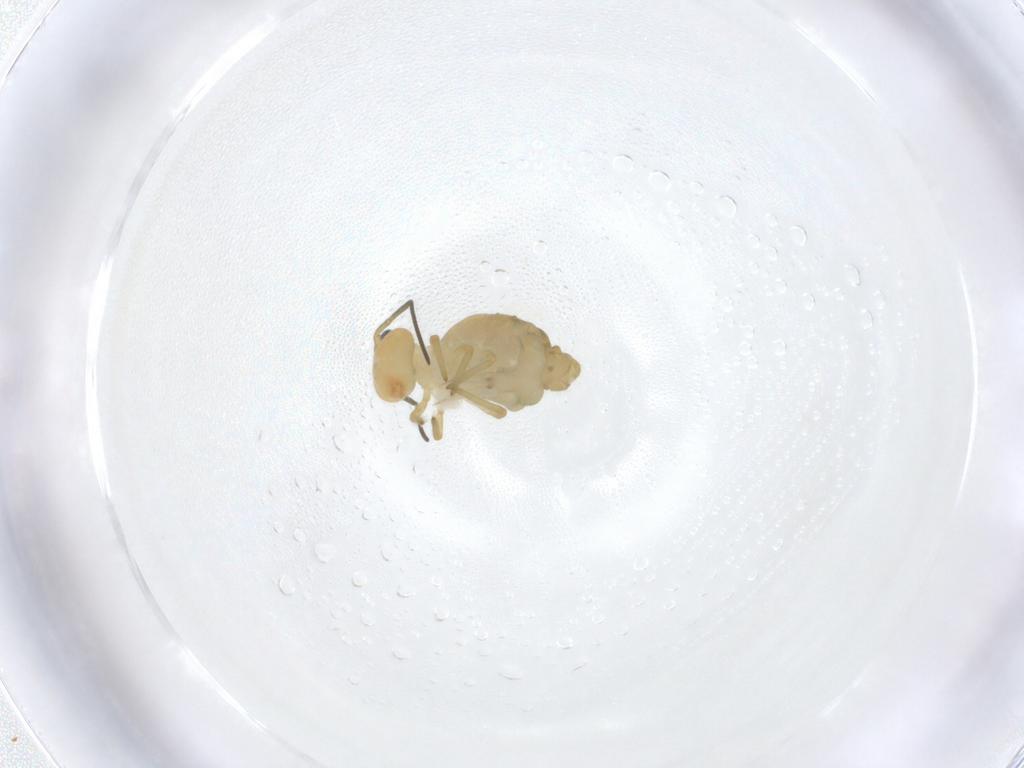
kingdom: Animalia
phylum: Arthropoda
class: Collembola
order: Symphypleona
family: Sminthuridae
